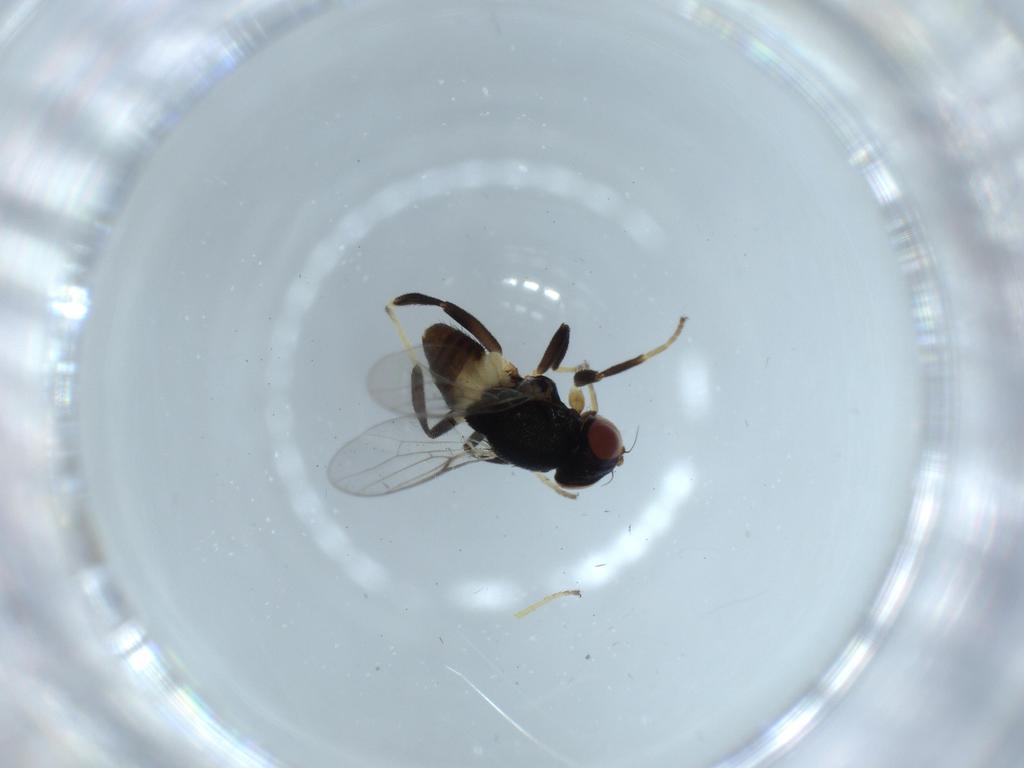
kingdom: Animalia
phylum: Arthropoda
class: Insecta
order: Diptera
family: Chloropidae
